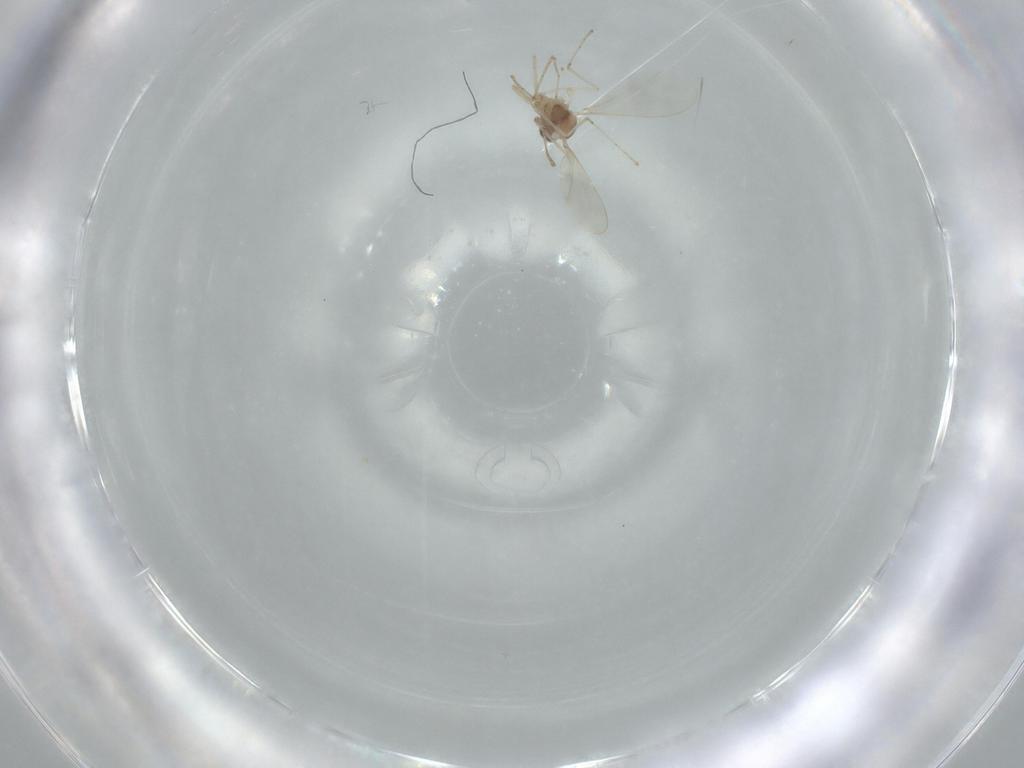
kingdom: Animalia
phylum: Arthropoda
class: Insecta
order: Diptera
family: Cecidomyiidae
